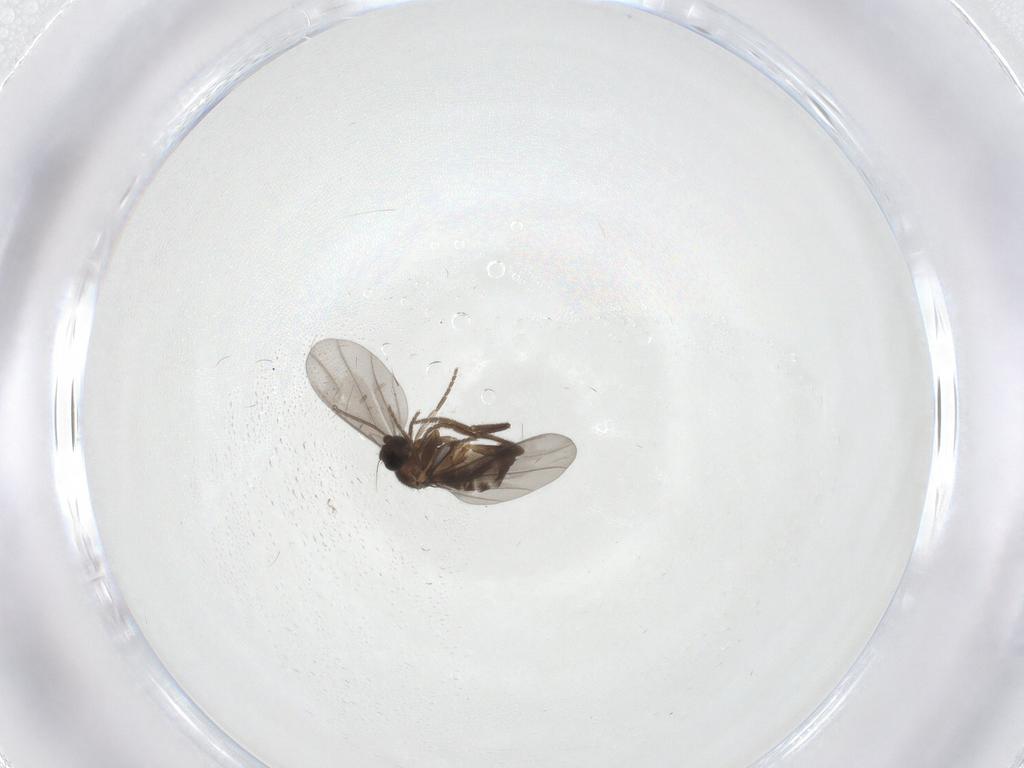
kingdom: Animalia
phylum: Arthropoda
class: Insecta
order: Diptera
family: Phoridae
